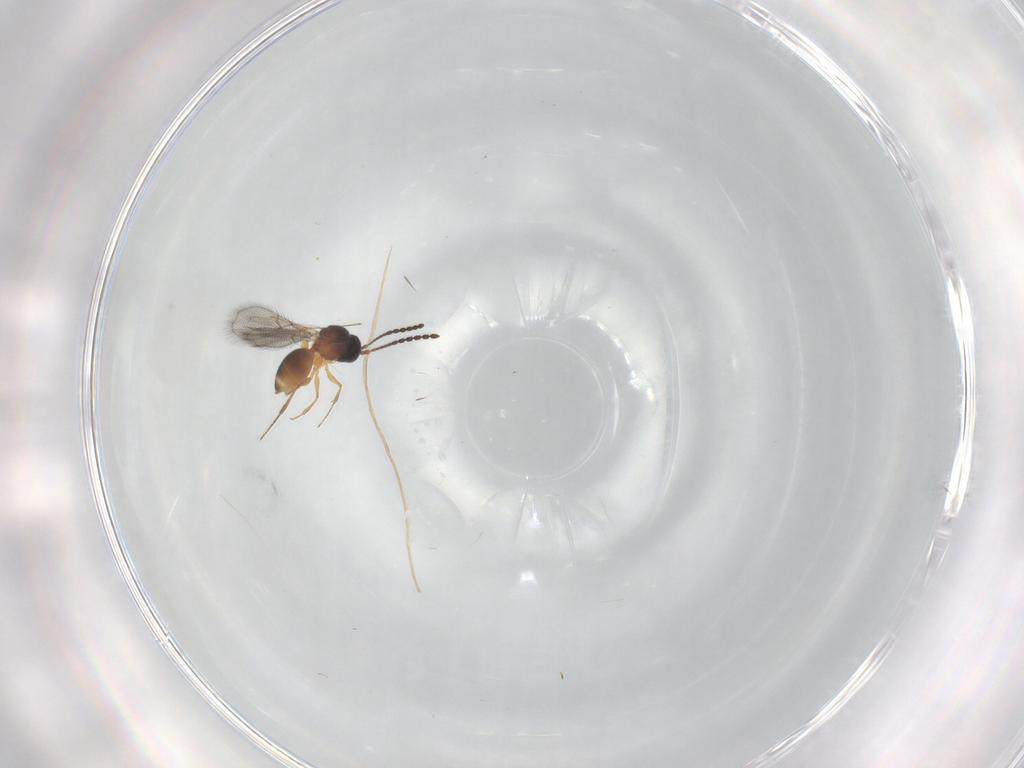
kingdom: Animalia
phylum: Arthropoda
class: Insecta
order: Hymenoptera
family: Figitidae
